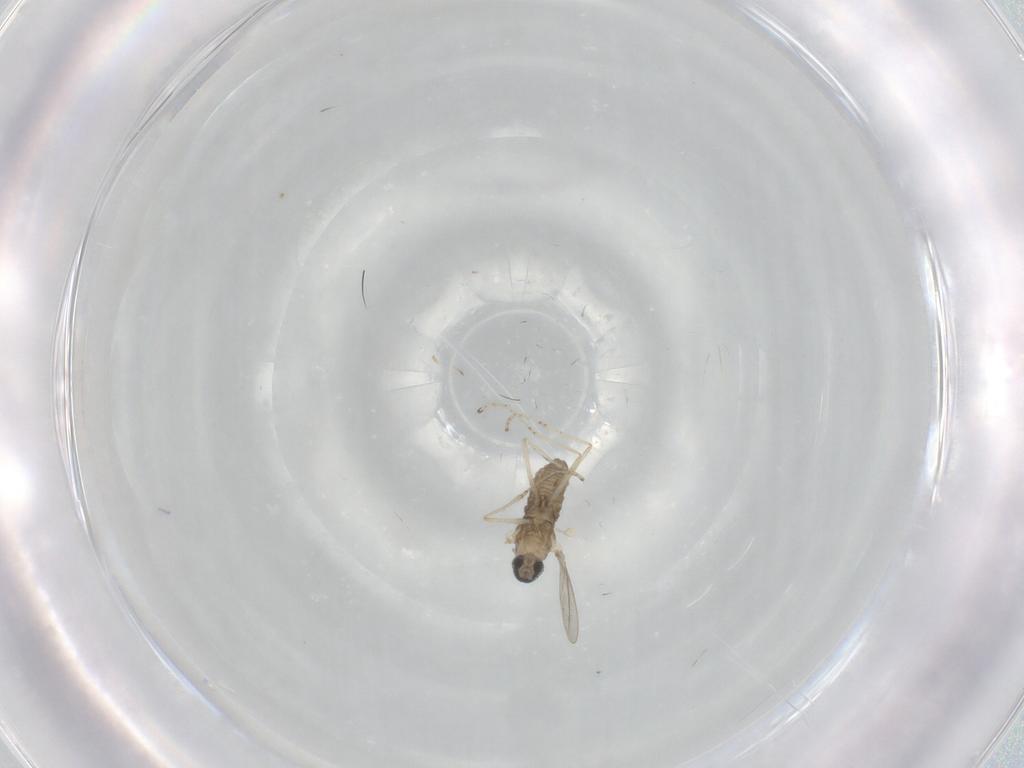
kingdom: Animalia
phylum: Arthropoda
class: Insecta
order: Diptera
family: Cecidomyiidae
